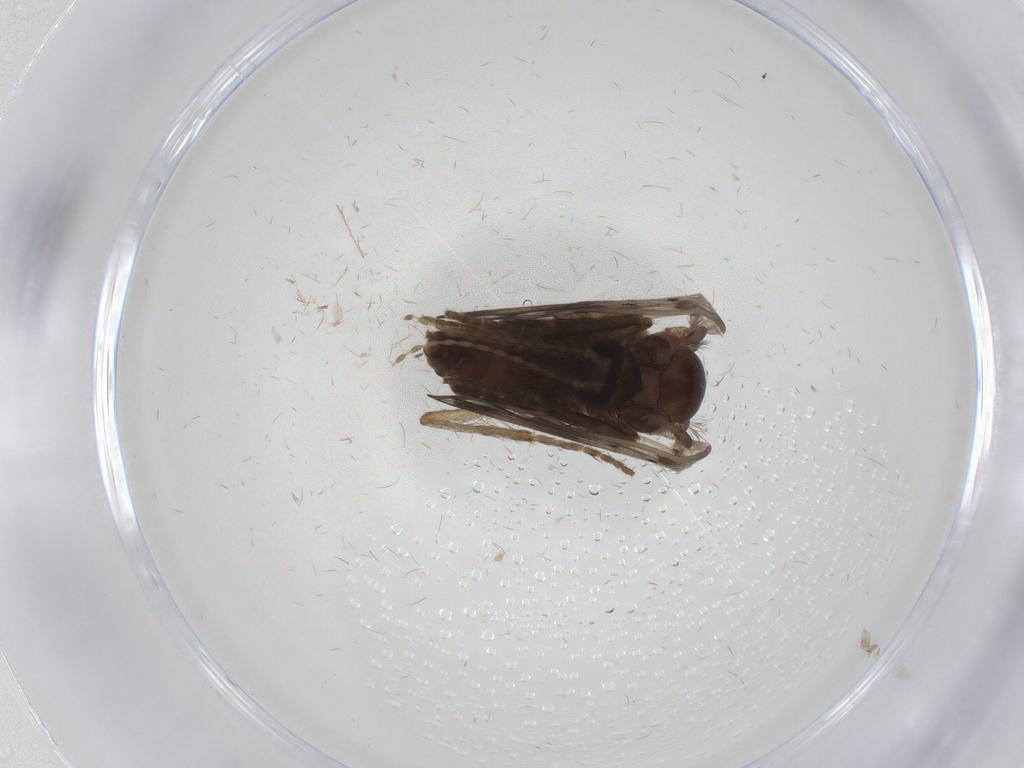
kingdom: Animalia
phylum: Arthropoda
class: Insecta
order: Diptera
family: Psychodidae
